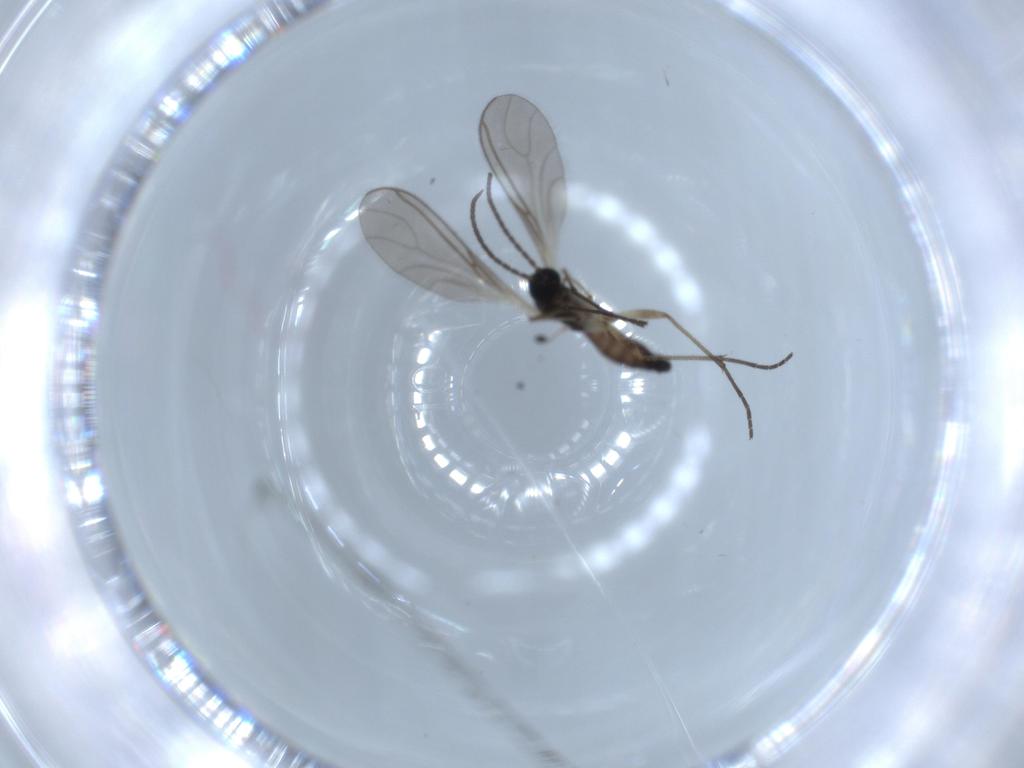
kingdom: Animalia
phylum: Arthropoda
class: Insecta
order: Diptera
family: Sciaridae
